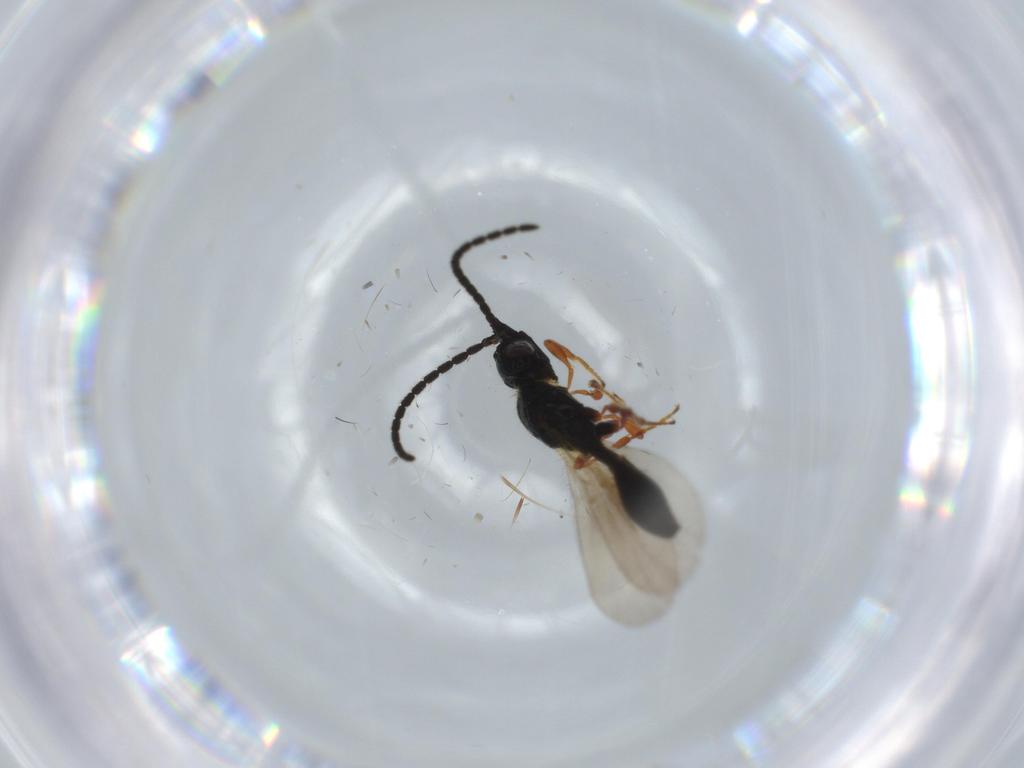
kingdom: Animalia
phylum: Arthropoda
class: Insecta
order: Hymenoptera
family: Diapriidae
